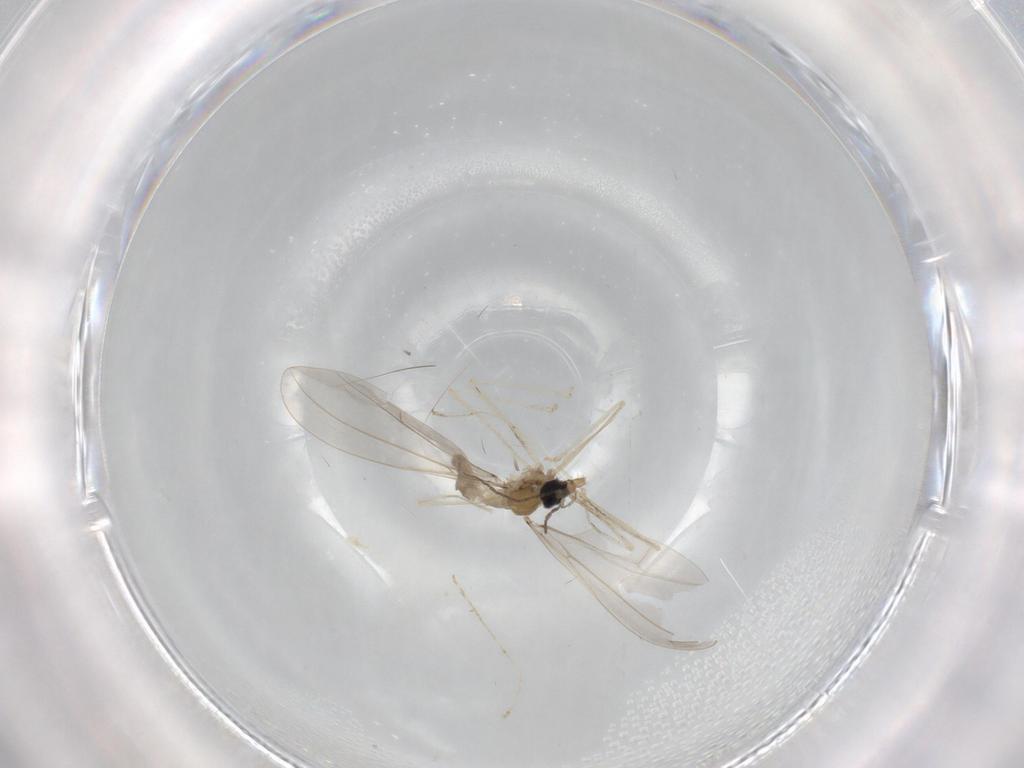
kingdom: Animalia
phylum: Arthropoda
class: Insecta
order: Diptera
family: Cecidomyiidae
